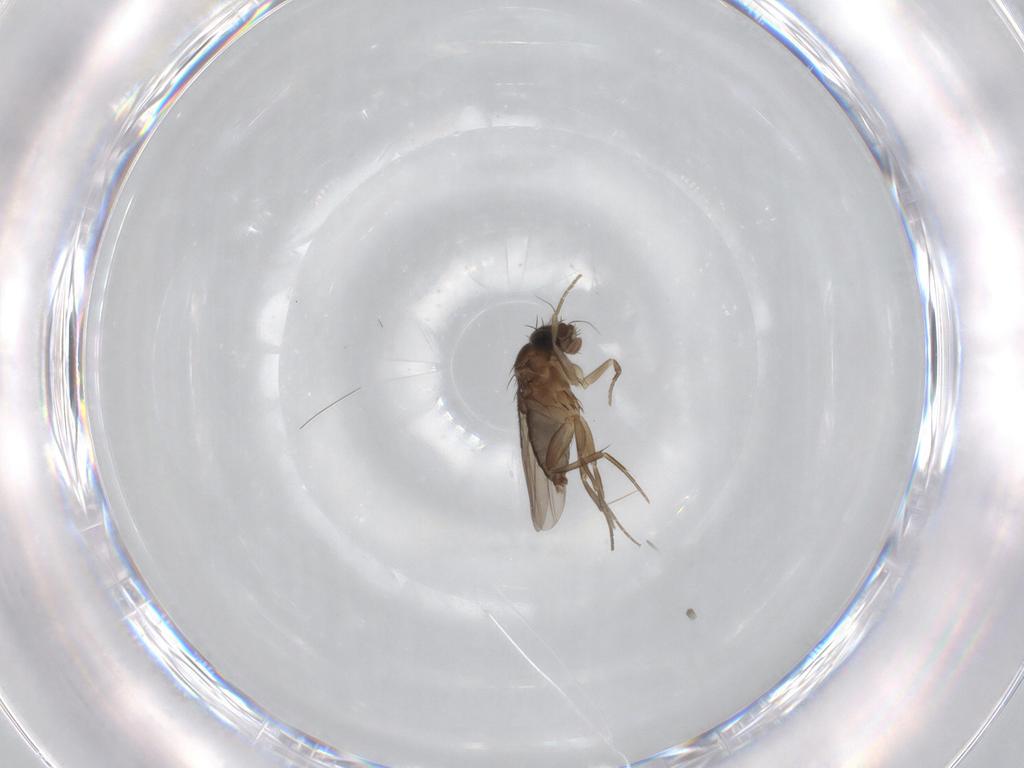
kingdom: Animalia
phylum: Arthropoda
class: Insecta
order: Diptera
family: Phoridae
